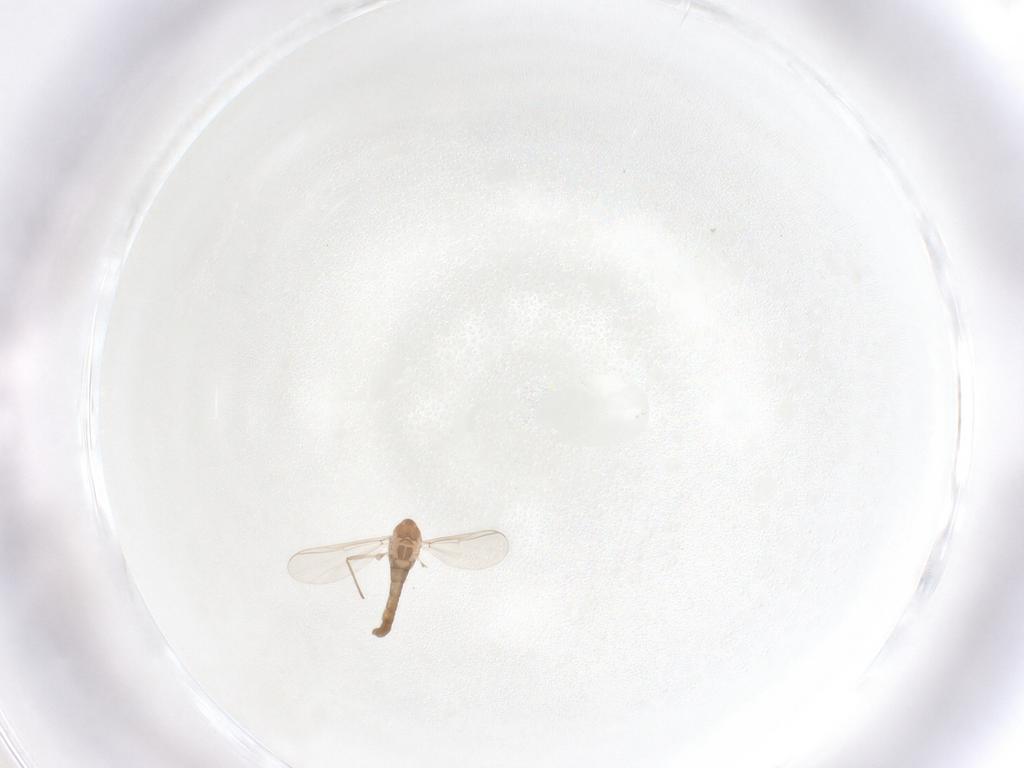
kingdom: Animalia
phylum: Arthropoda
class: Insecta
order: Diptera
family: Chironomidae
